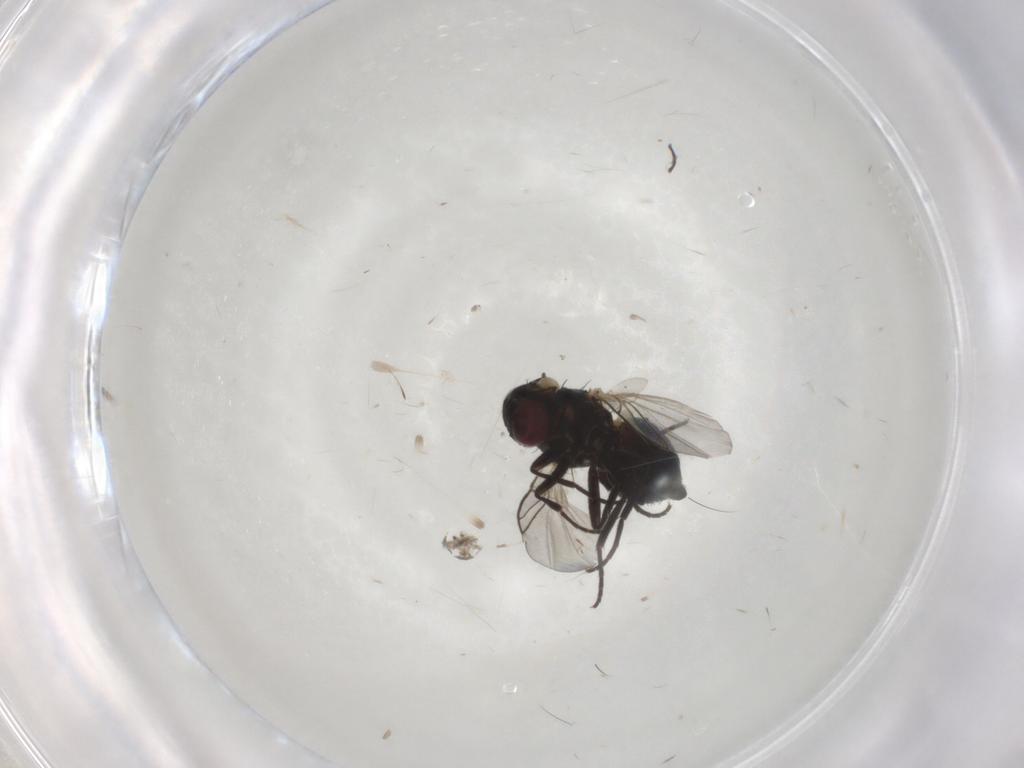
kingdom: Animalia
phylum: Arthropoda
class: Insecta
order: Diptera
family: Agromyzidae
